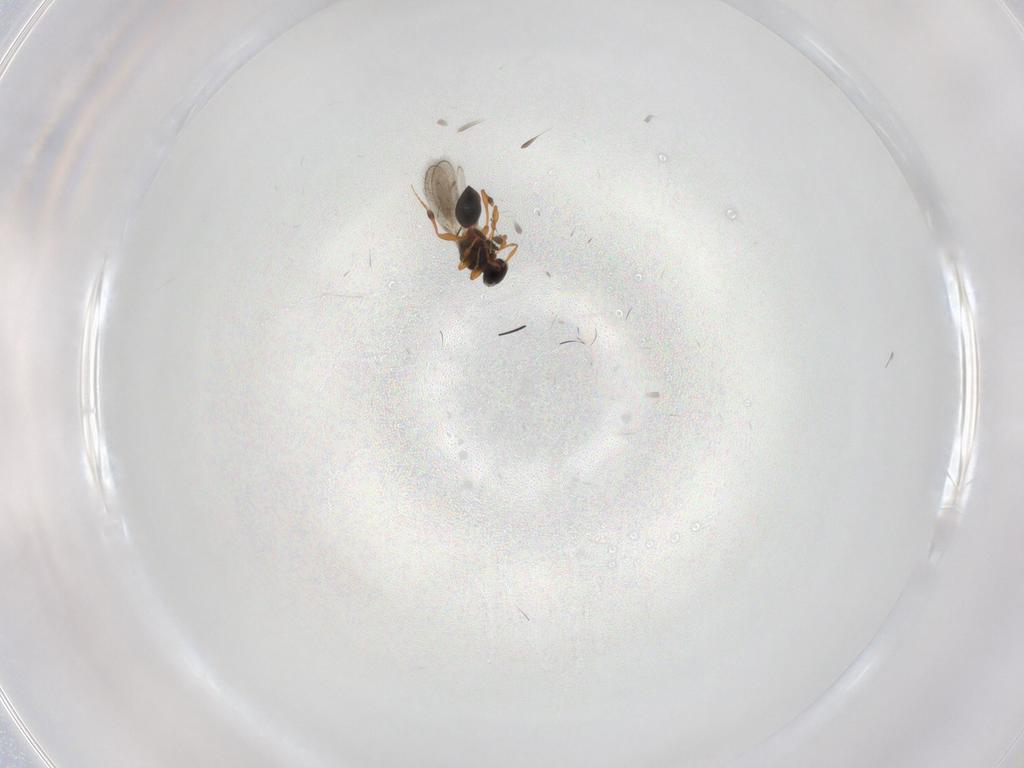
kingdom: Animalia
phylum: Arthropoda
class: Insecta
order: Hymenoptera
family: Platygastridae
